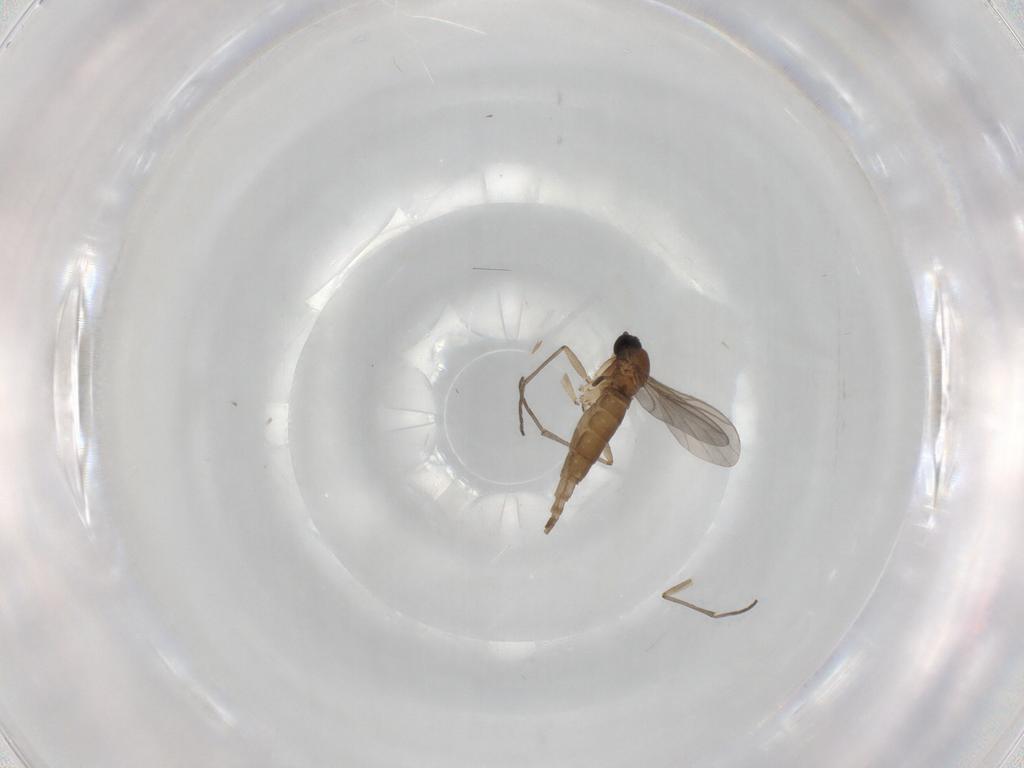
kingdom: Animalia
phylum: Arthropoda
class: Insecta
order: Diptera
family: Sciaridae
